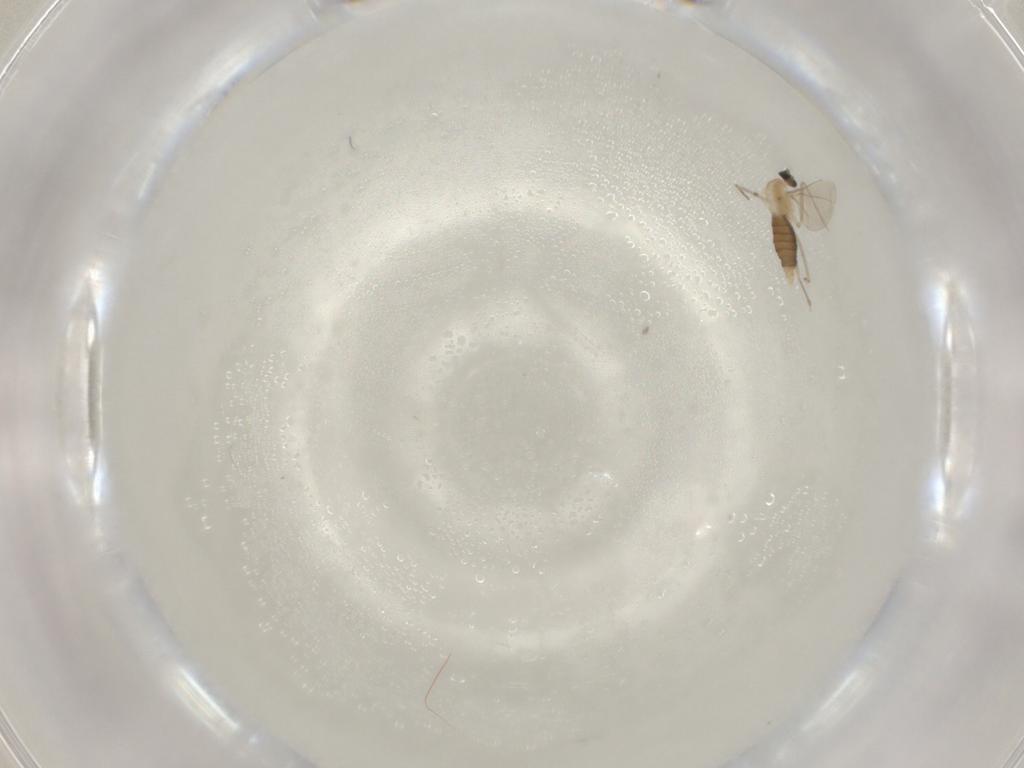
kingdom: Animalia
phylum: Arthropoda
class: Insecta
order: Diptera
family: Cecidomyiidae
